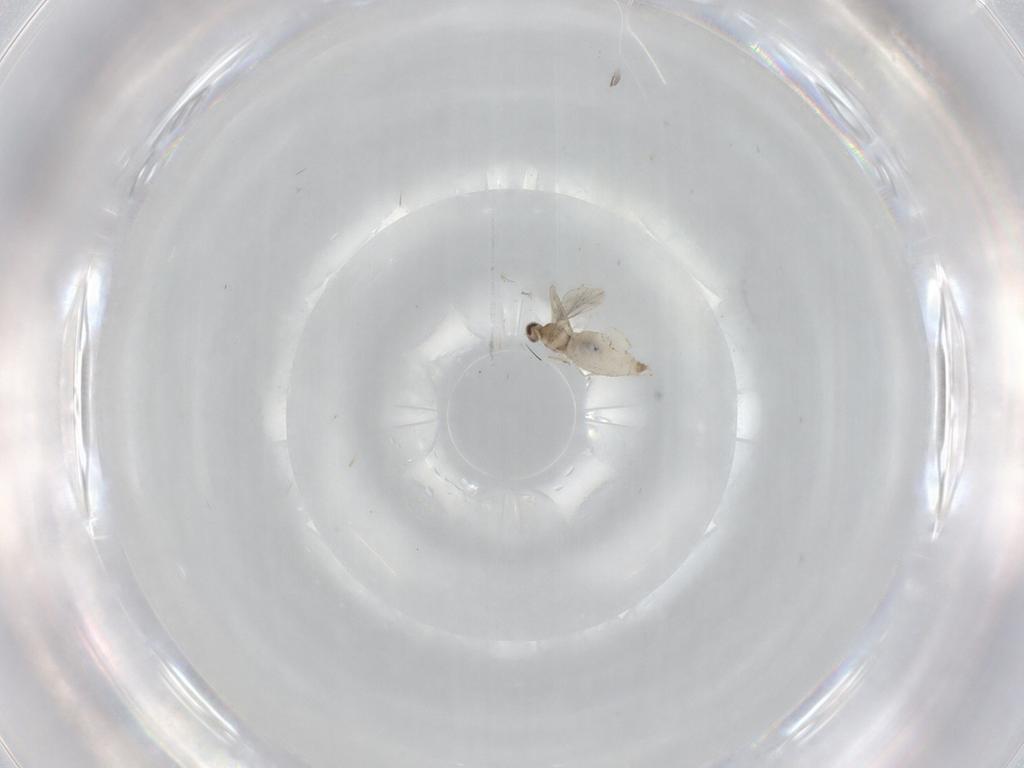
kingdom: Animalia
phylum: Arthropoda
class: Insecta
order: Diptera
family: Cecidomyiidae
